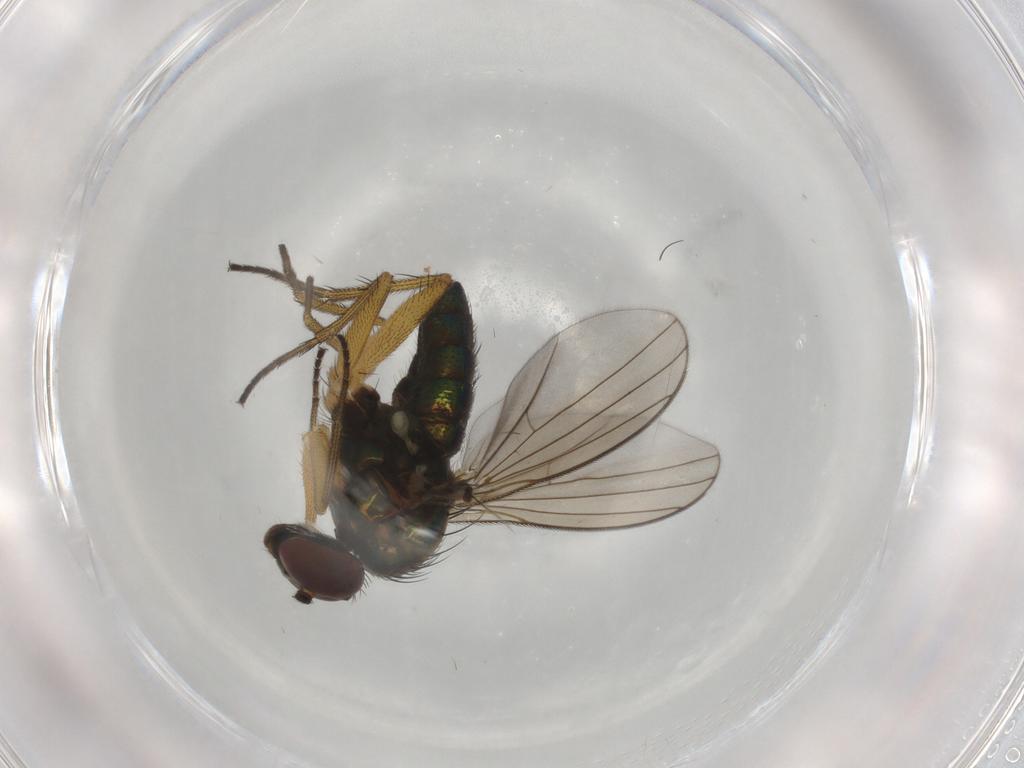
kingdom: Animalia
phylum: Arthropoda
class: Insecta
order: Diptera
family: Dolichopodidae
